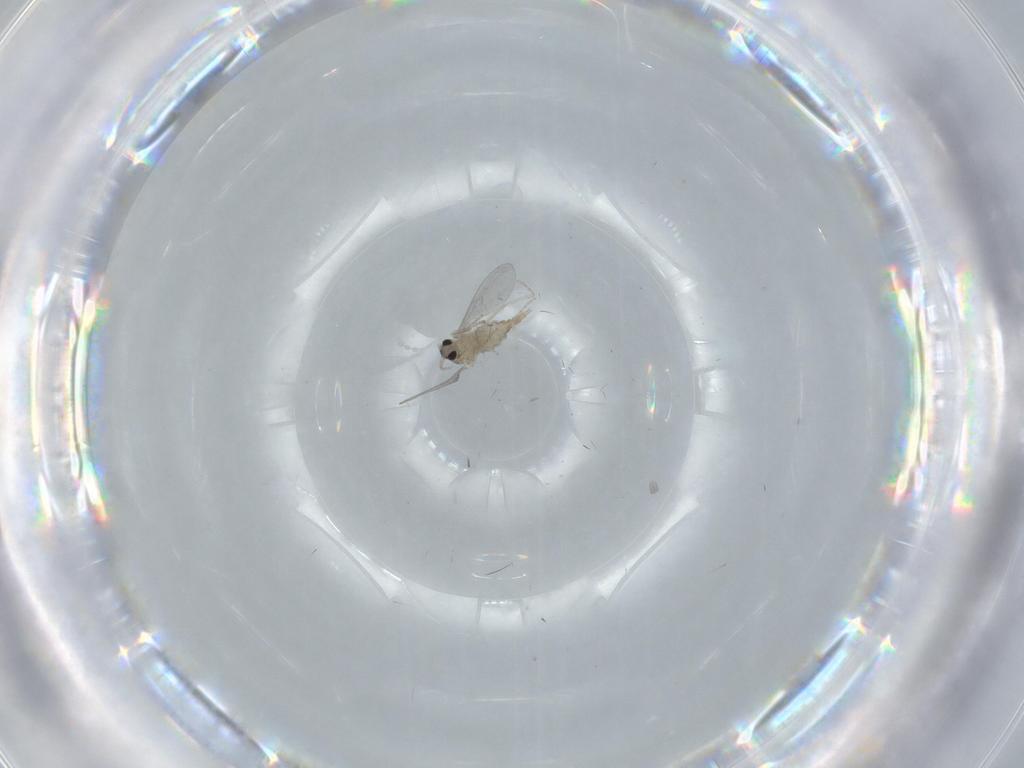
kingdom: Animalia
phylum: Arthropoda
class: Insecta
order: Diptera
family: Cecidomyiidae
